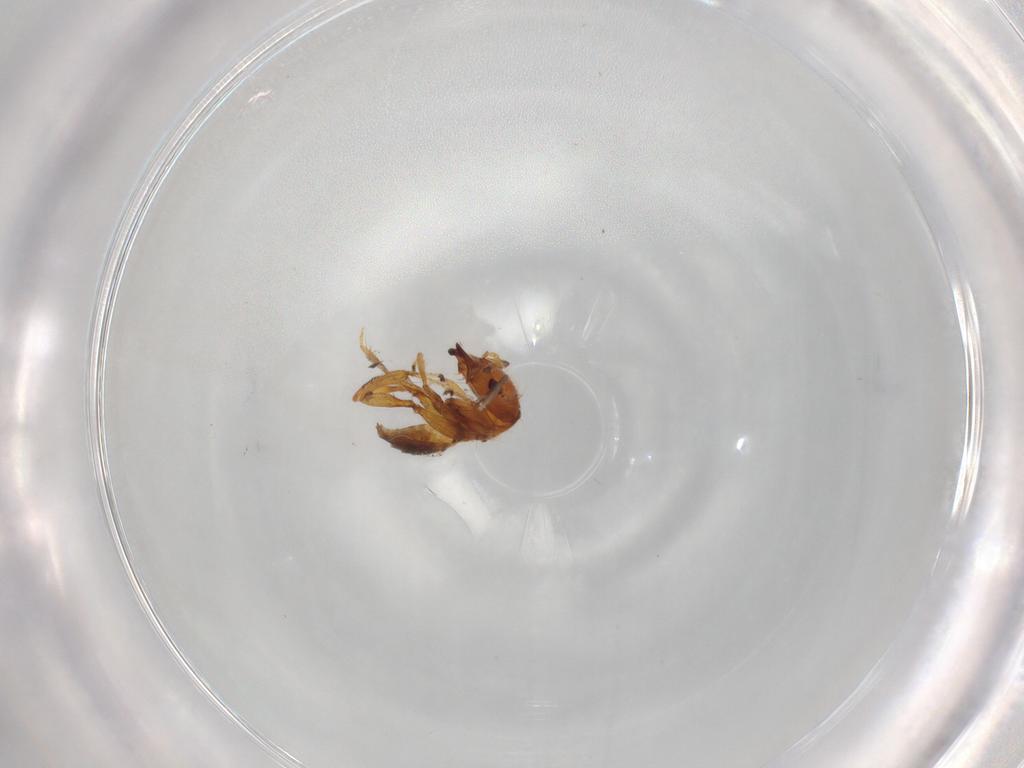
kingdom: Animalia
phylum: Arthropoda
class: Insecta
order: Hymenoptera
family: Pteromalidae
